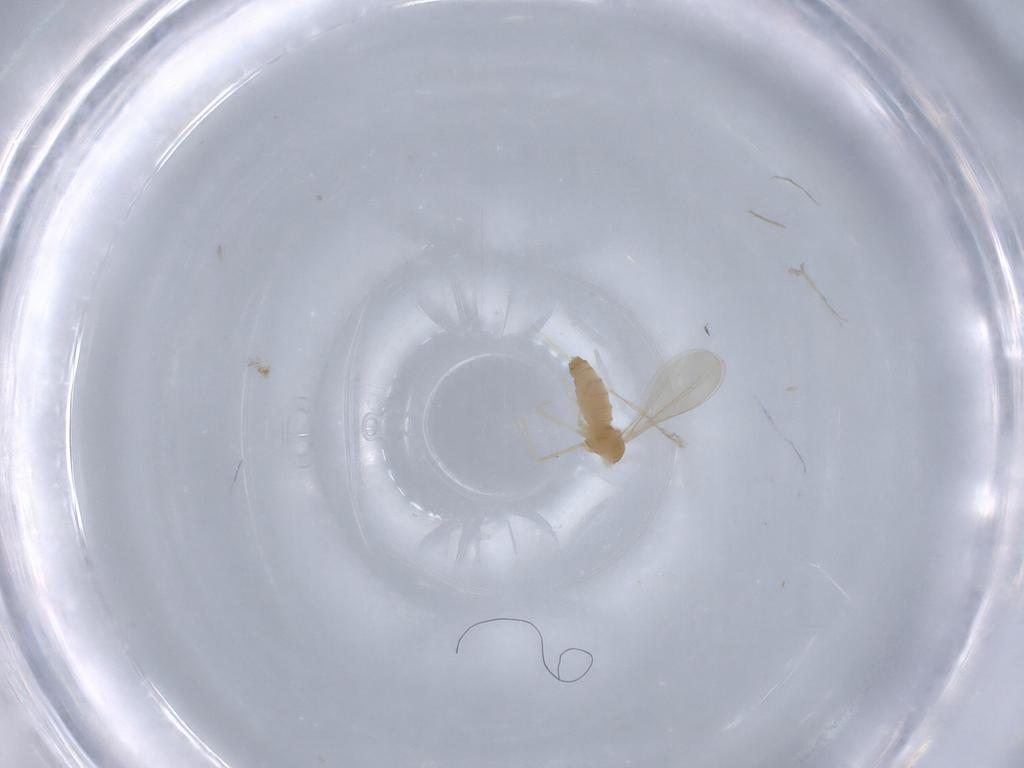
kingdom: Animalia
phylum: Arthropoda
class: Insecta
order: Diptera
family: Cecidomyiidae
